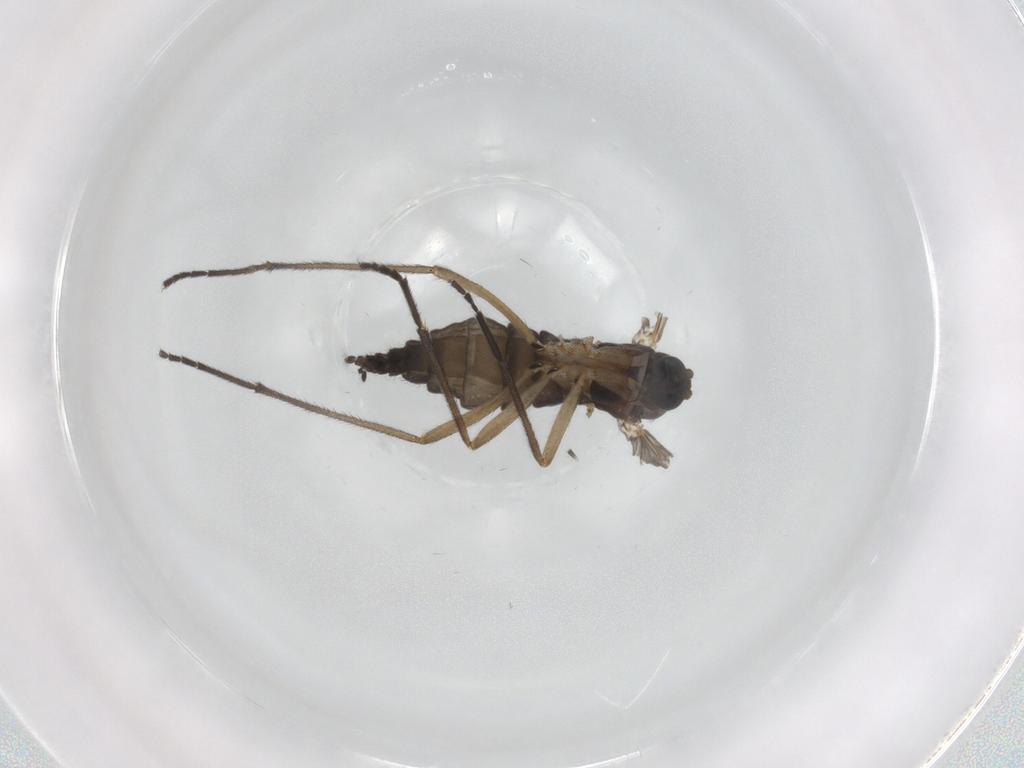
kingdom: Animalia
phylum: Arthropoda
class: Insecta
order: Diptera
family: Sciaridae
